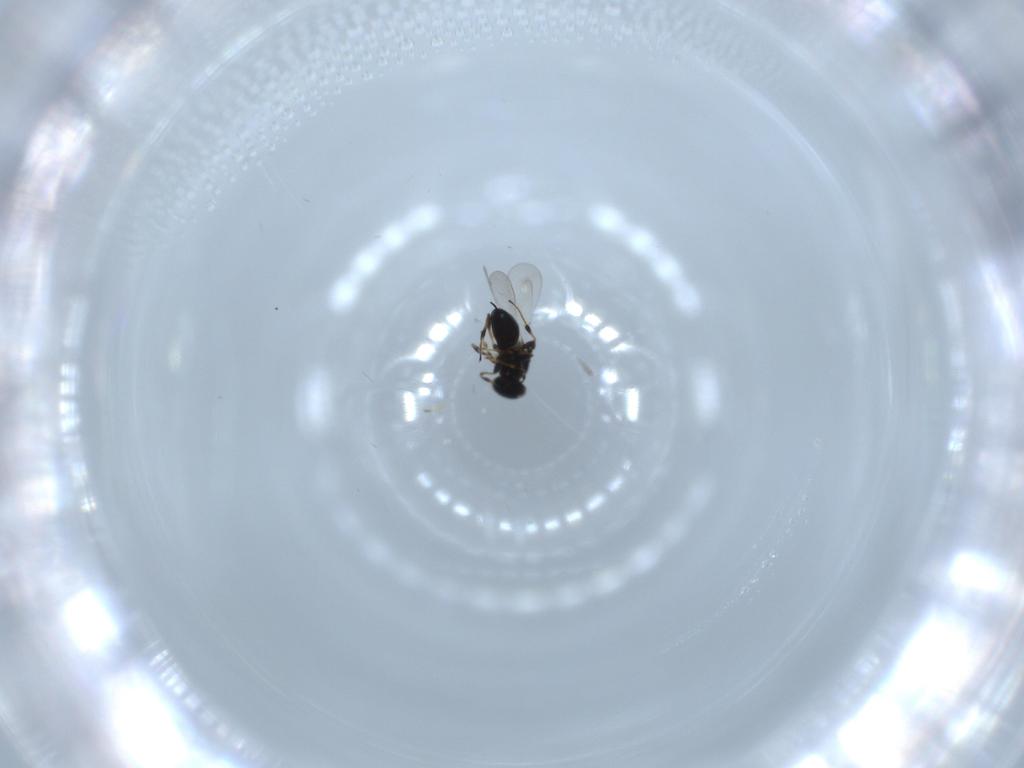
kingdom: Animalia
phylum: Arthropoda
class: Insecta
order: Hymenoptera
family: Platygastridae
